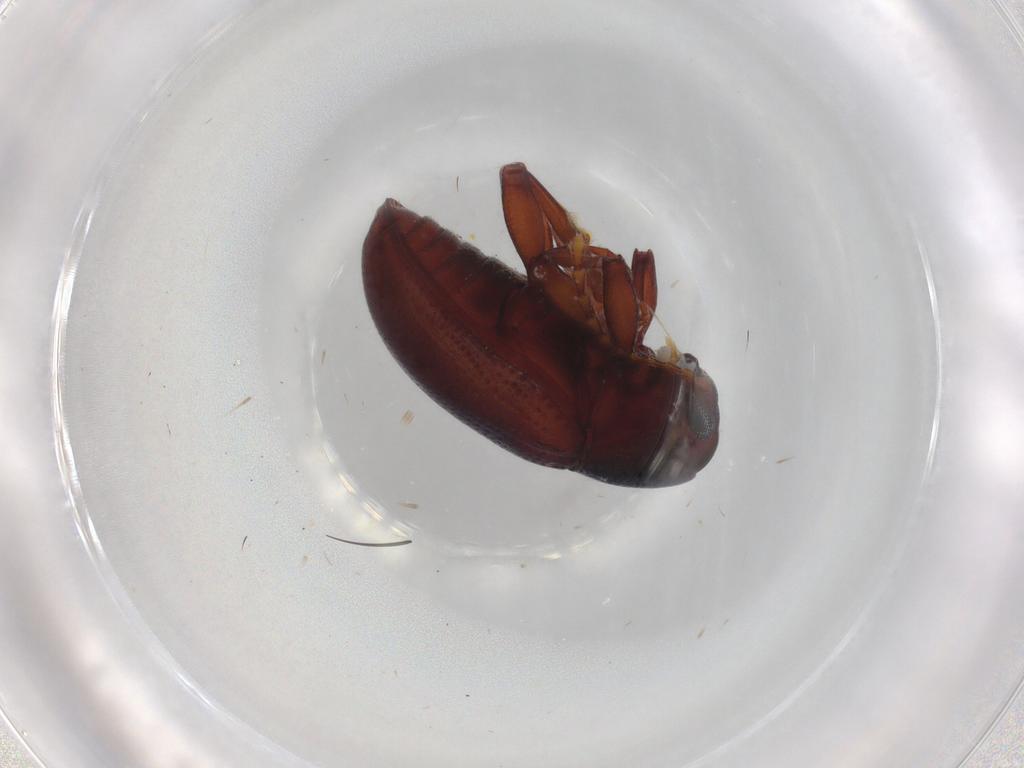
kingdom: Animalia
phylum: Arthropoda
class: Insecta
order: Coleoptera
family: Chrysomelidae
